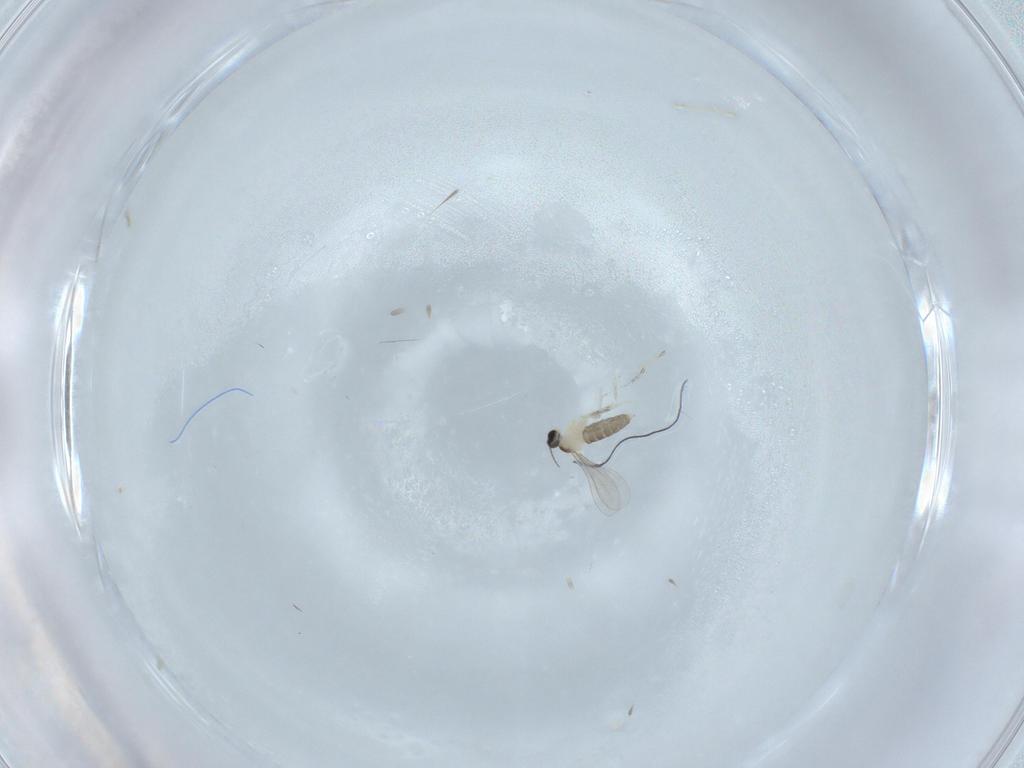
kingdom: Animalia
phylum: Arthropoda
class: Insecta
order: Diptera
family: Cecidomyiidae
